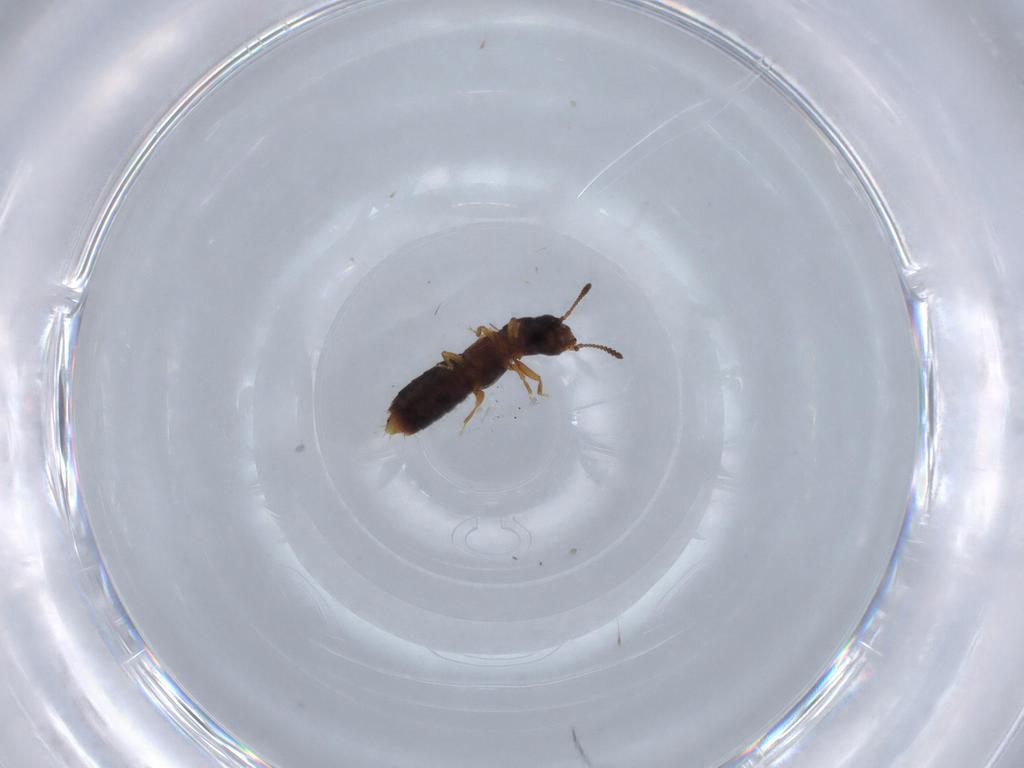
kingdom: Animalia
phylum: Arthropoda
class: Insecta
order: Coleoptera
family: Staphylinidae
